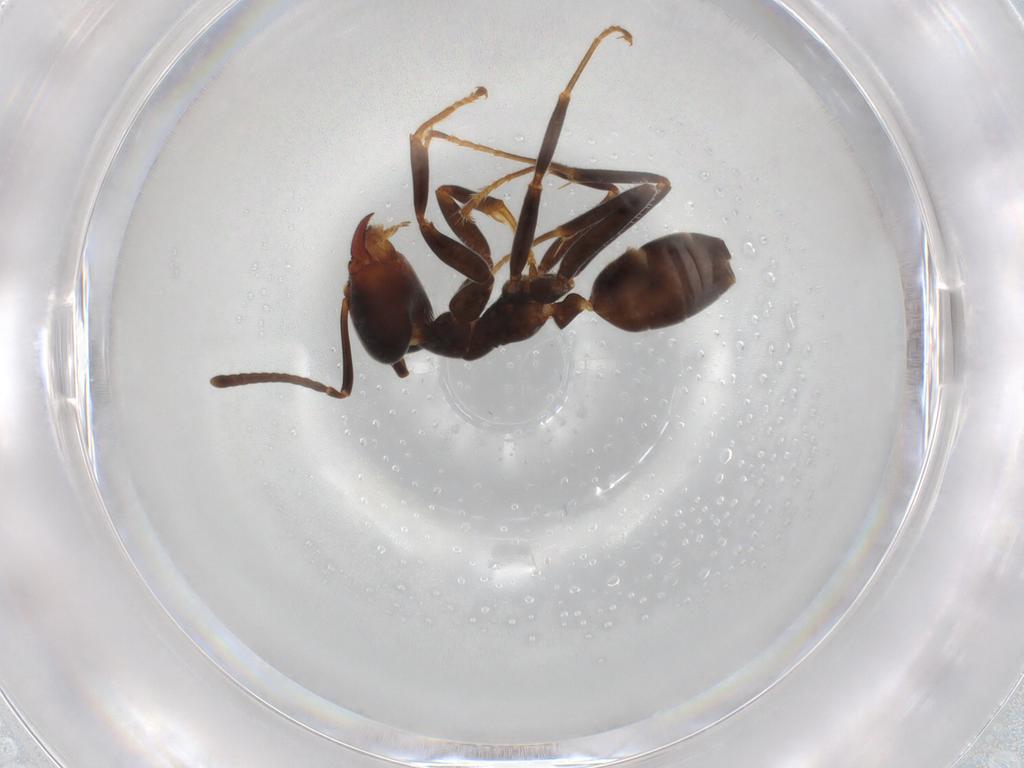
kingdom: Animalia
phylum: Arthropoda
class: Insecta
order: Hymenoptera
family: Formicidae
